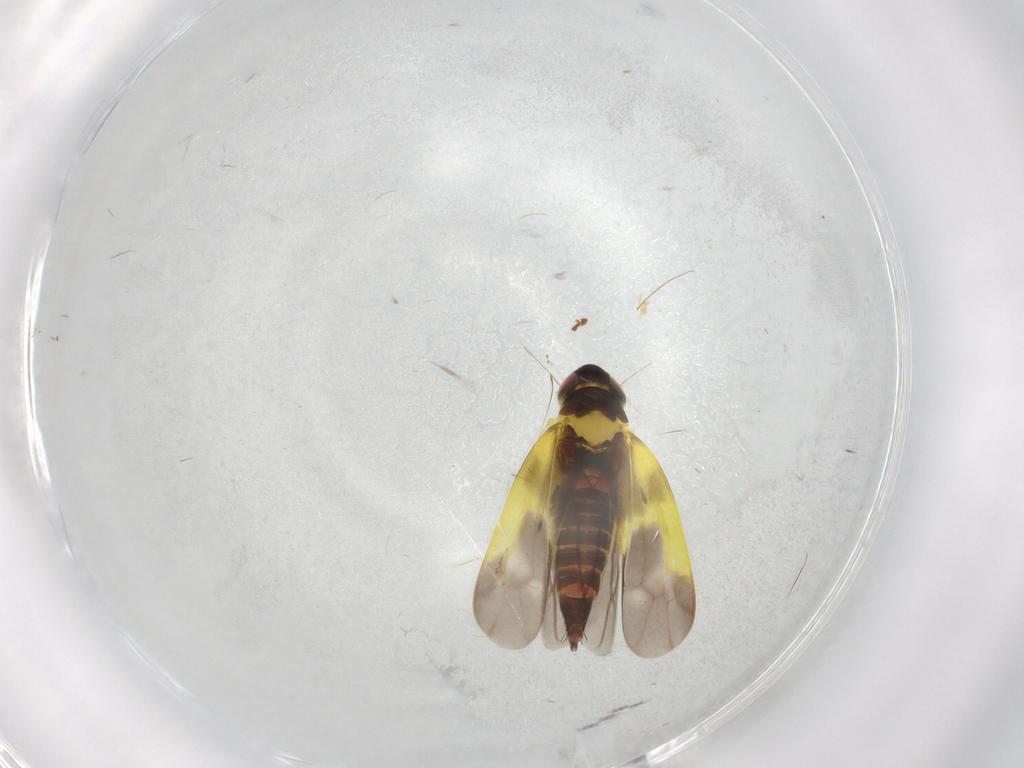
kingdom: Animalia
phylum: Arthropoda
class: Insecta
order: Hemiptera
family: Cicadellidae
